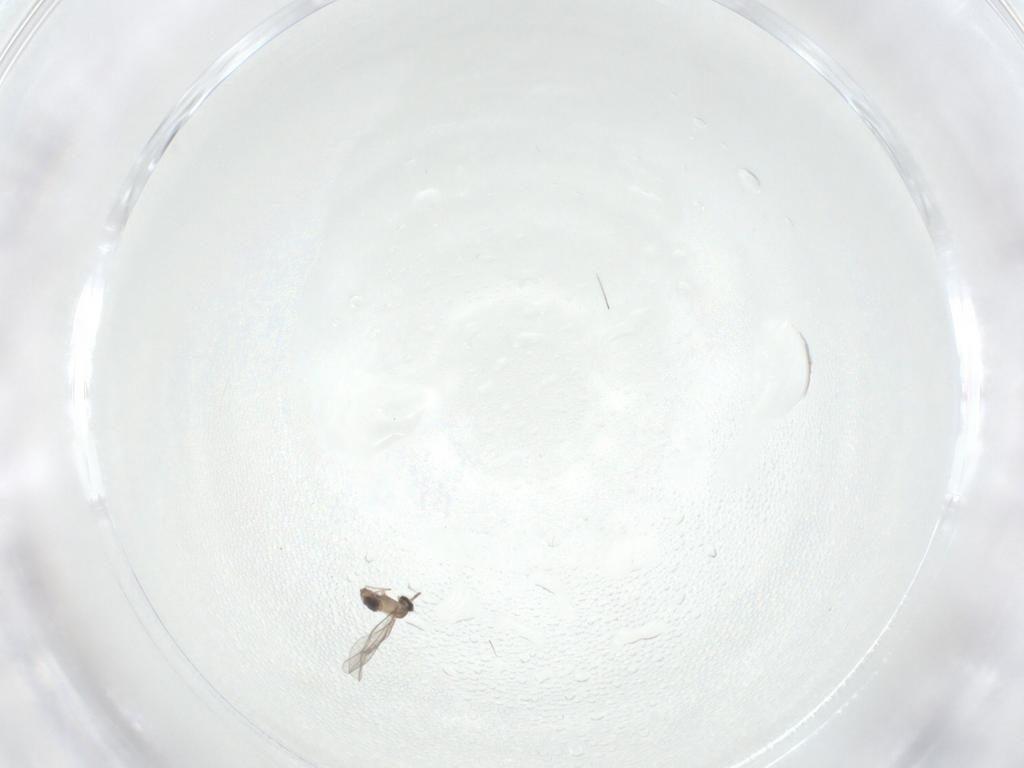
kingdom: Animalia
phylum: Arthropoda
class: Insecta
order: Diptera
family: Cecidomyiidae
